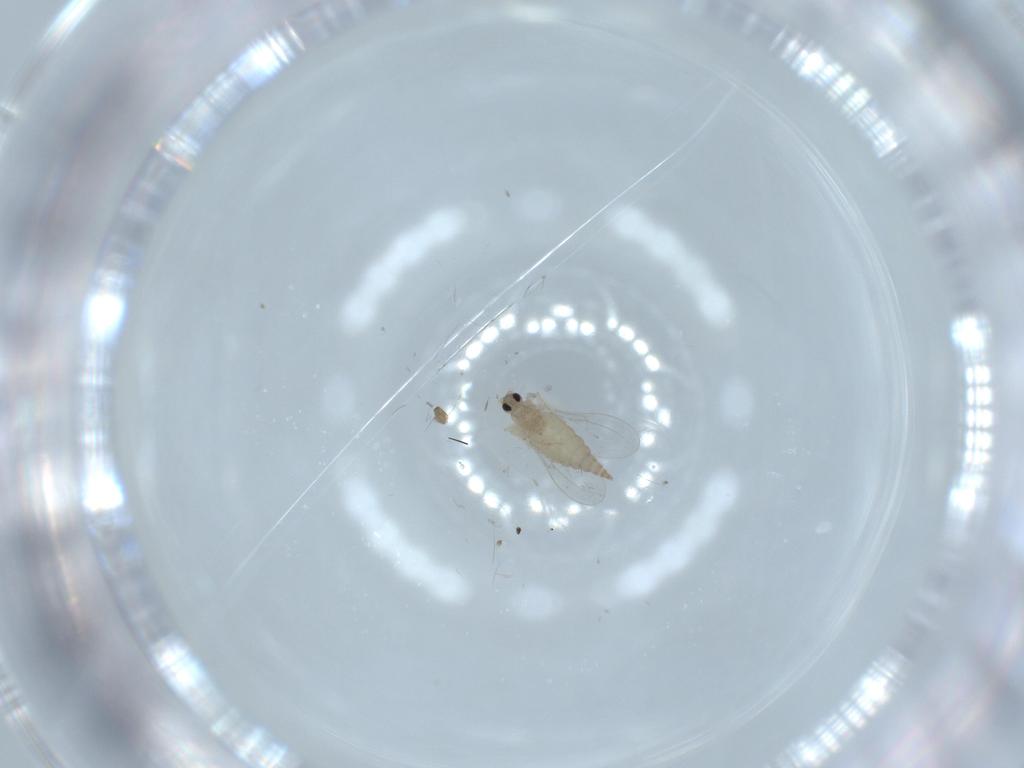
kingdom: Animalia
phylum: Arthropoda
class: Insecta
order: Diptera
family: Cecidomyiidae
